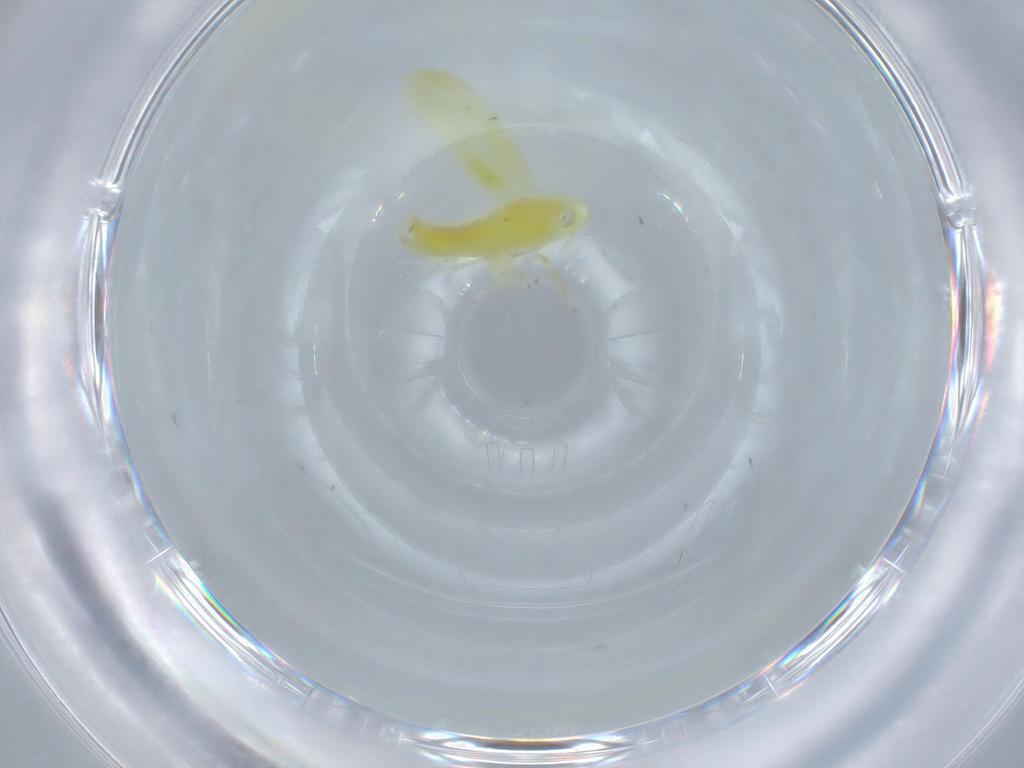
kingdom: Animalia
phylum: Arthropoda
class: Insecta
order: Hemiptera
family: Cicadellidae
